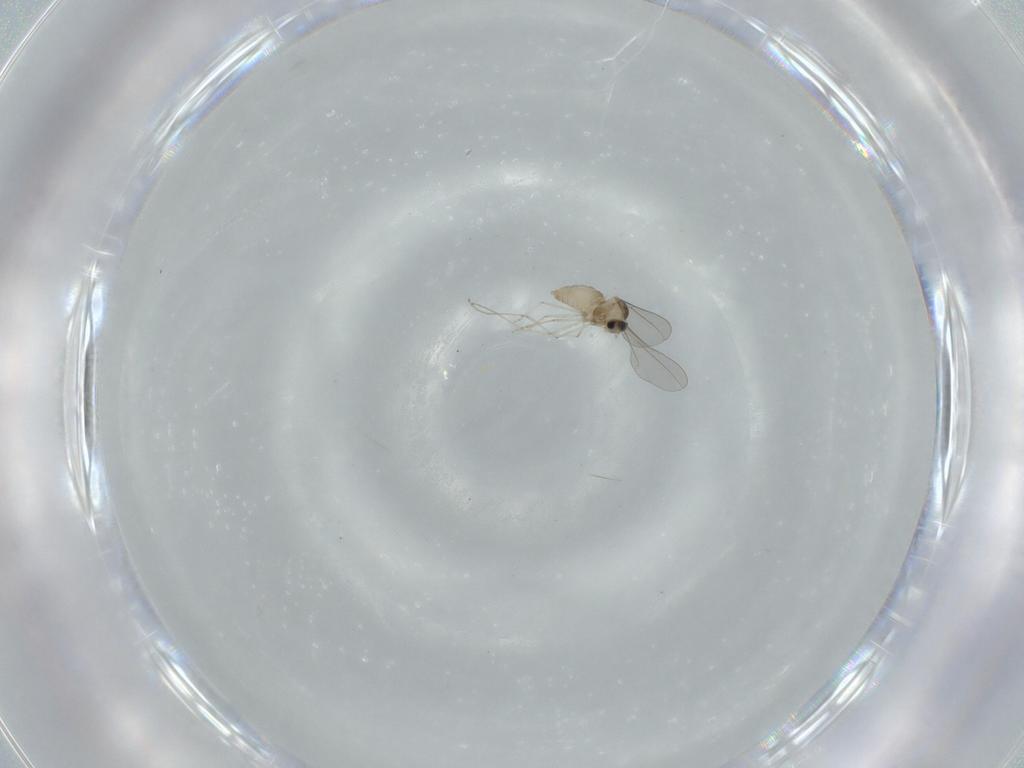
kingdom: Animalia
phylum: Arthropoda
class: Insecta
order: Diptera
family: Cecidomyiidae
